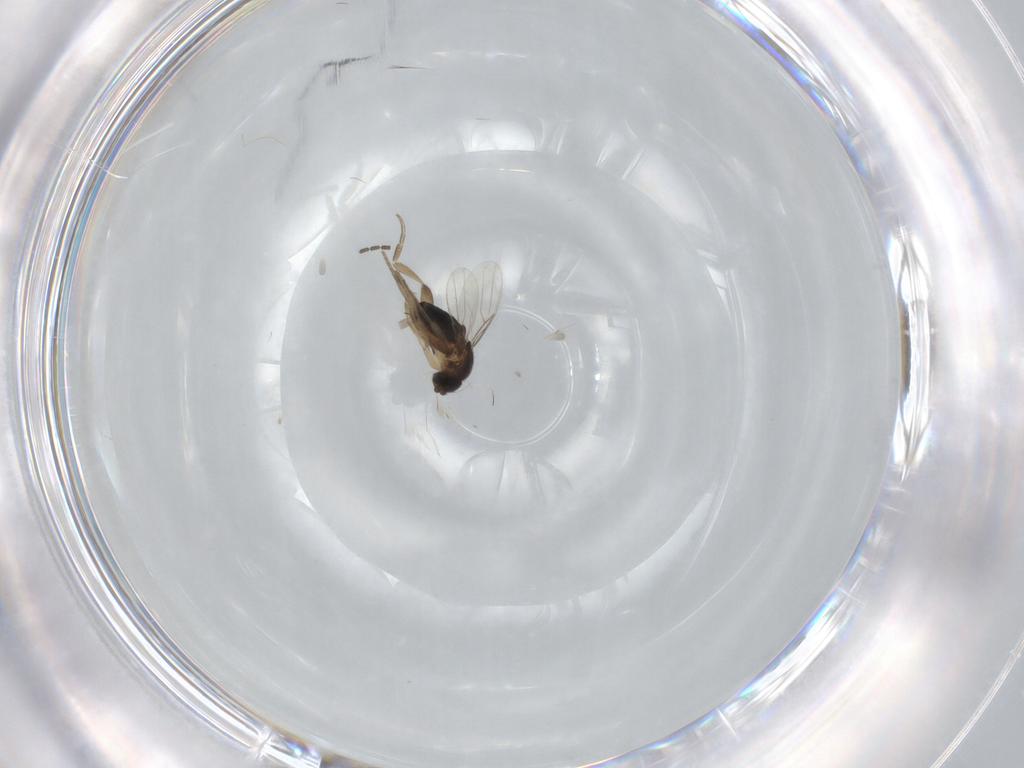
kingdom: Animalia
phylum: Arthropoda
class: Insecta
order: Diptera
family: Phoridae
